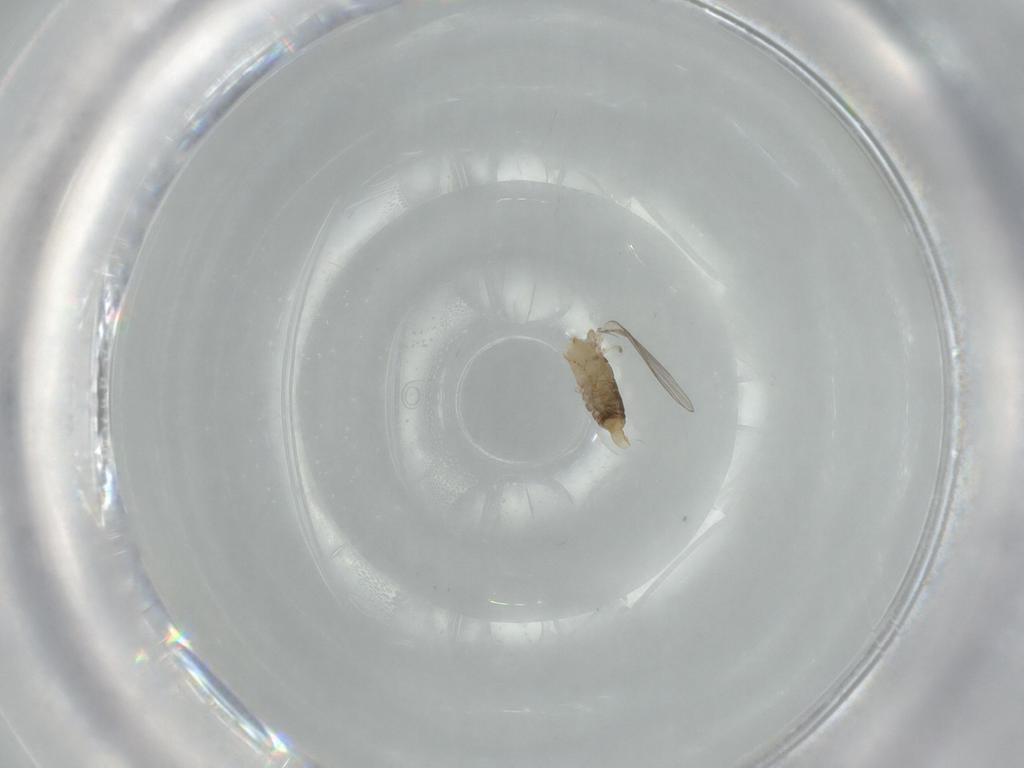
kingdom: Animalia
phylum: Arthropoda
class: Insecta
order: Diptera
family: Psychodidae
